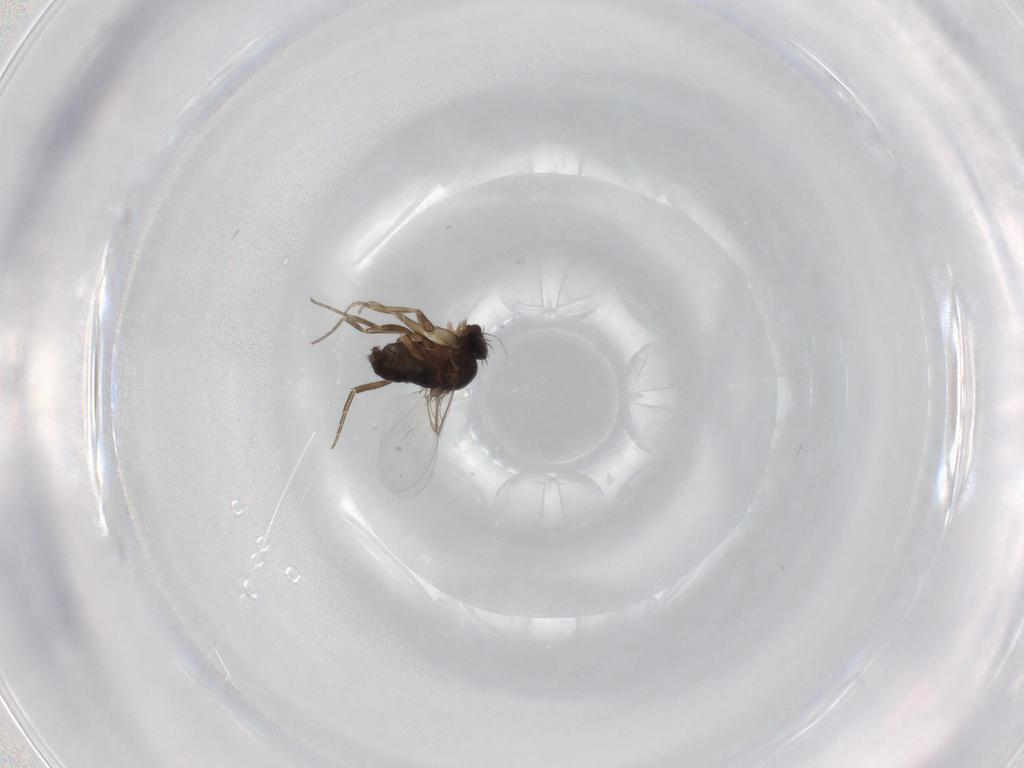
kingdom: Animalia
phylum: Arthropoda
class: Insecta
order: Diptera
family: Phoridae
